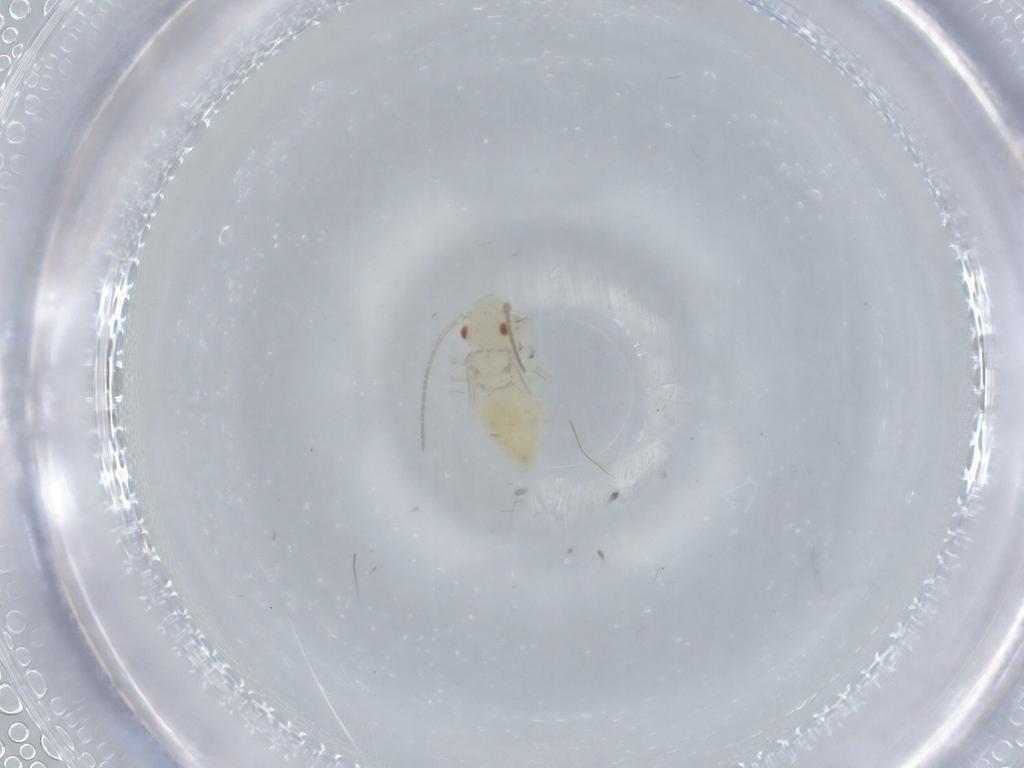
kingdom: Animalia
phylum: Arthropoda
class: Insecta
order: Psocodea
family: Caeciliusidae
